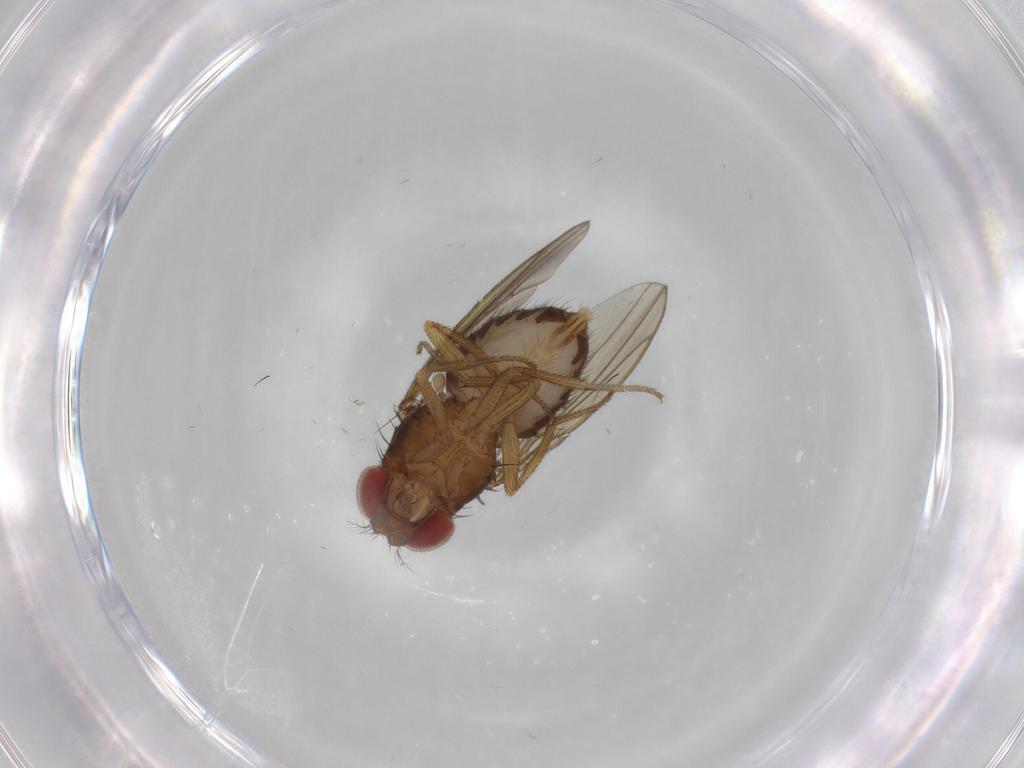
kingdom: Animalia
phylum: Arthropoda
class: Insecta
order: Diptera
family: Drosophilidae
